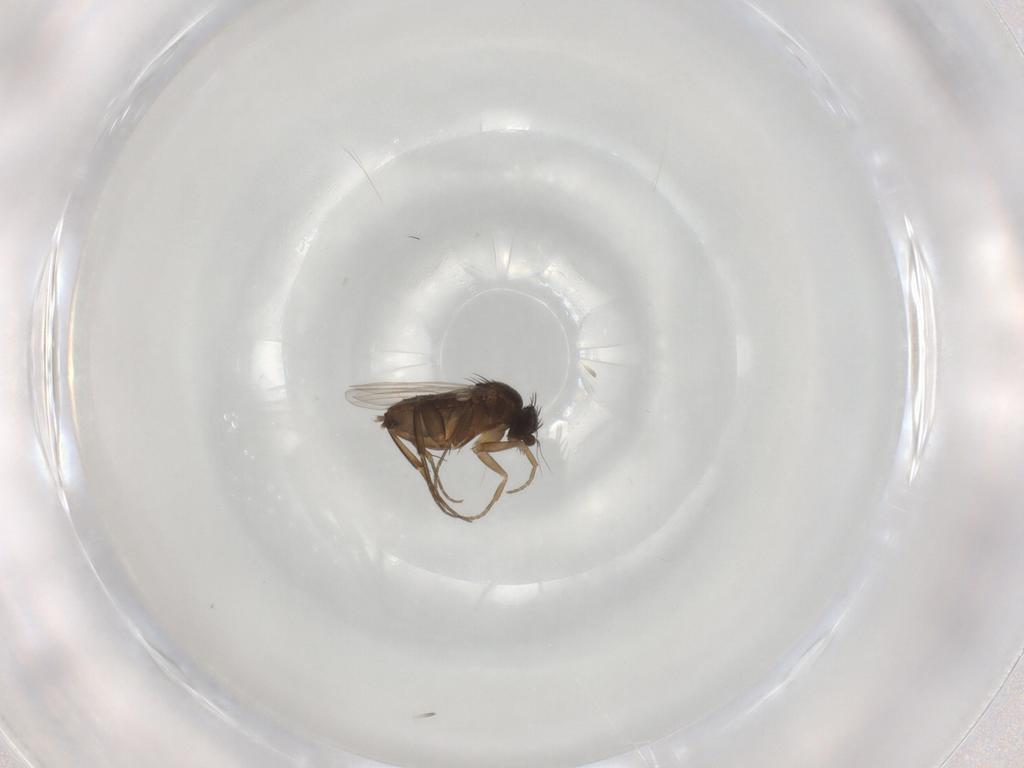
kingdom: Animalia
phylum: Arthropoda
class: Insecta
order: Diptera
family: Phoridae
